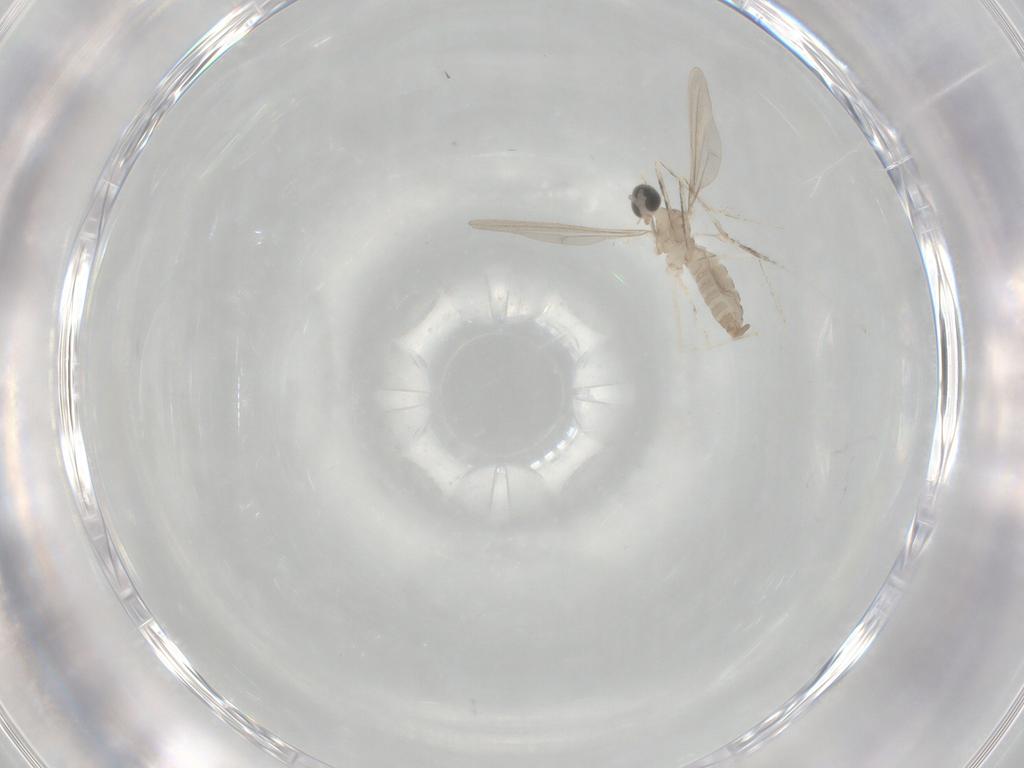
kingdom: Animalia
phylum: Arthropoda
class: Insecta
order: Diptera
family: Cecidomyiidae
